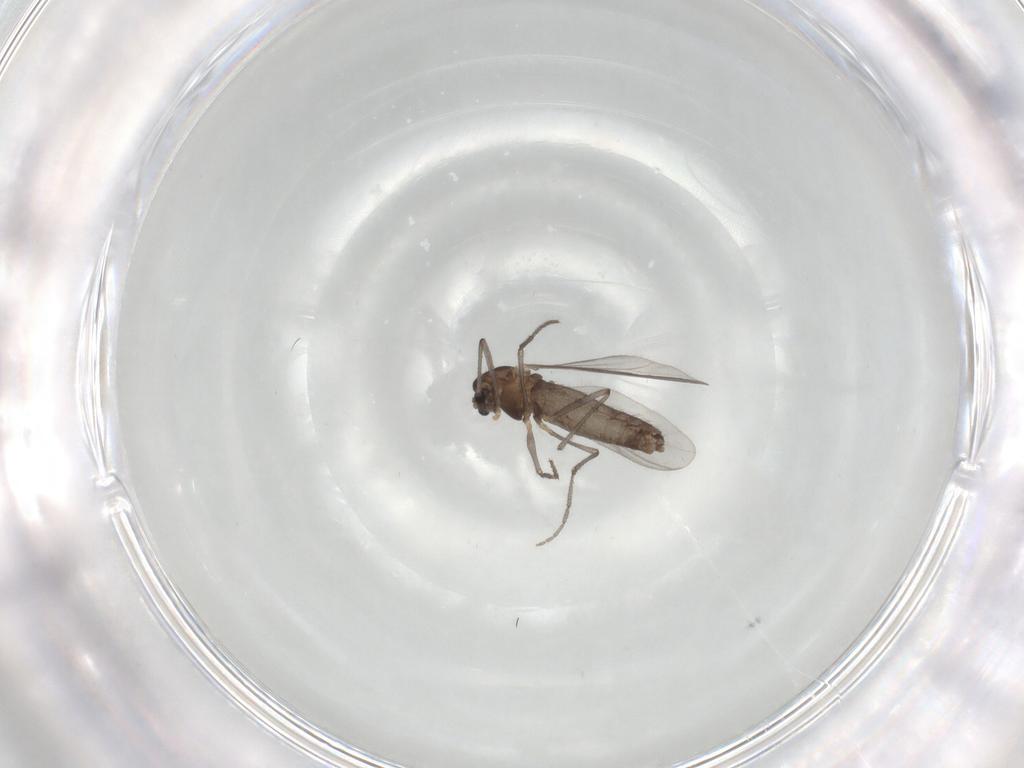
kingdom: Animalia
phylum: Arthropoda
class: Insecta
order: Diptera
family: Chironomidae
